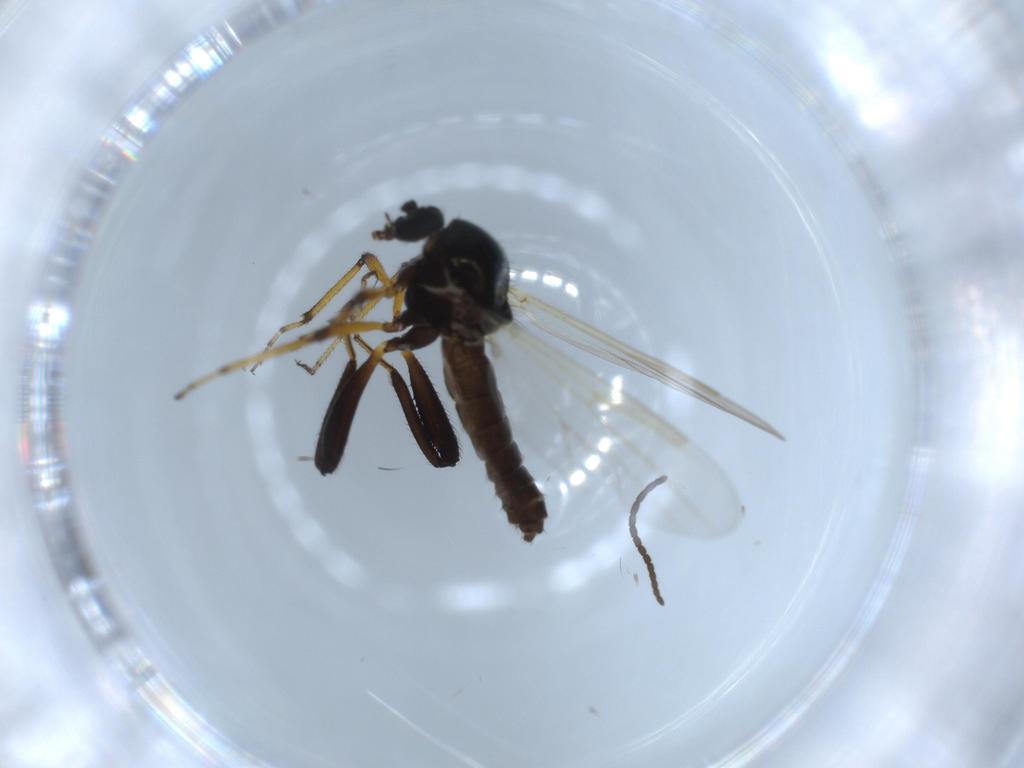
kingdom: Animalia
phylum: Arthropoda
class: Insecta
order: Diptera
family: Ceratopogonidae
